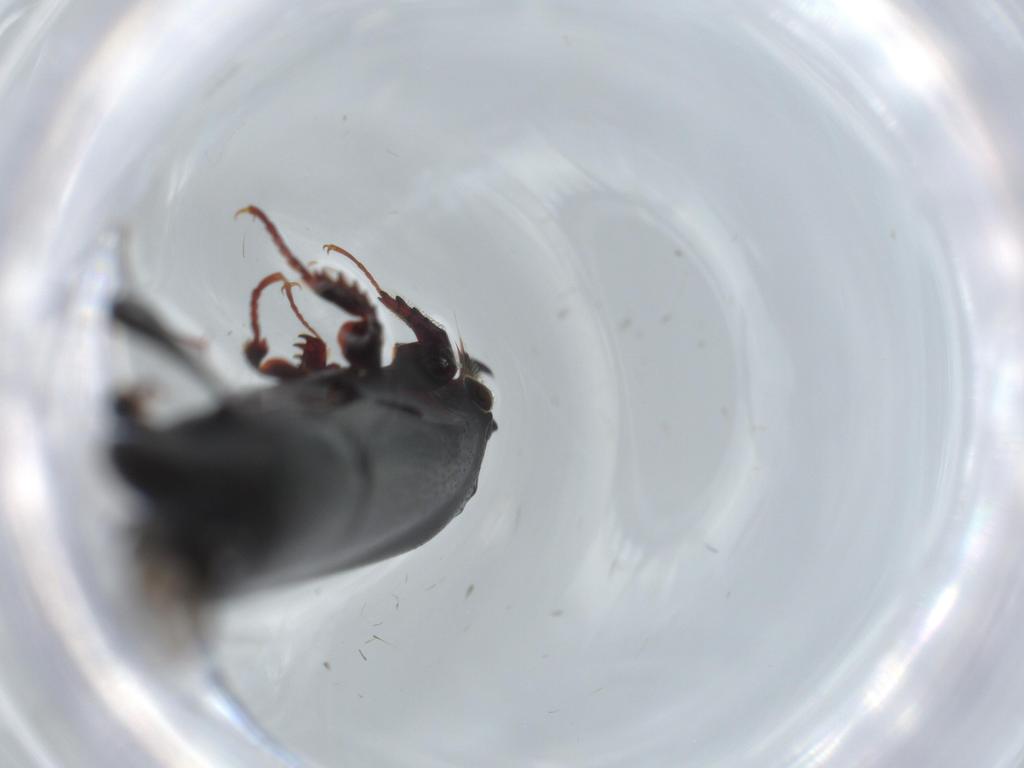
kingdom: Animalia
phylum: Arthropoda
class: Insecta
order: Coleoptera
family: Histeridae
